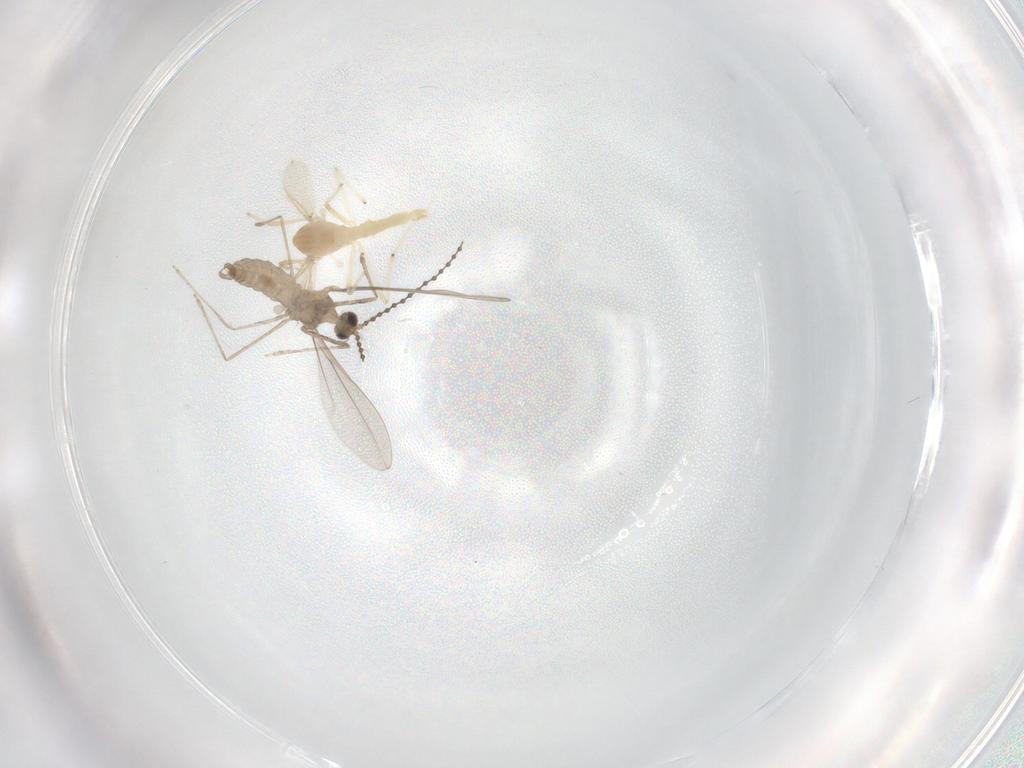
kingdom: Animalia
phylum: Arthropoda
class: Insecta
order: Diptera
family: Cecidomyiidae
